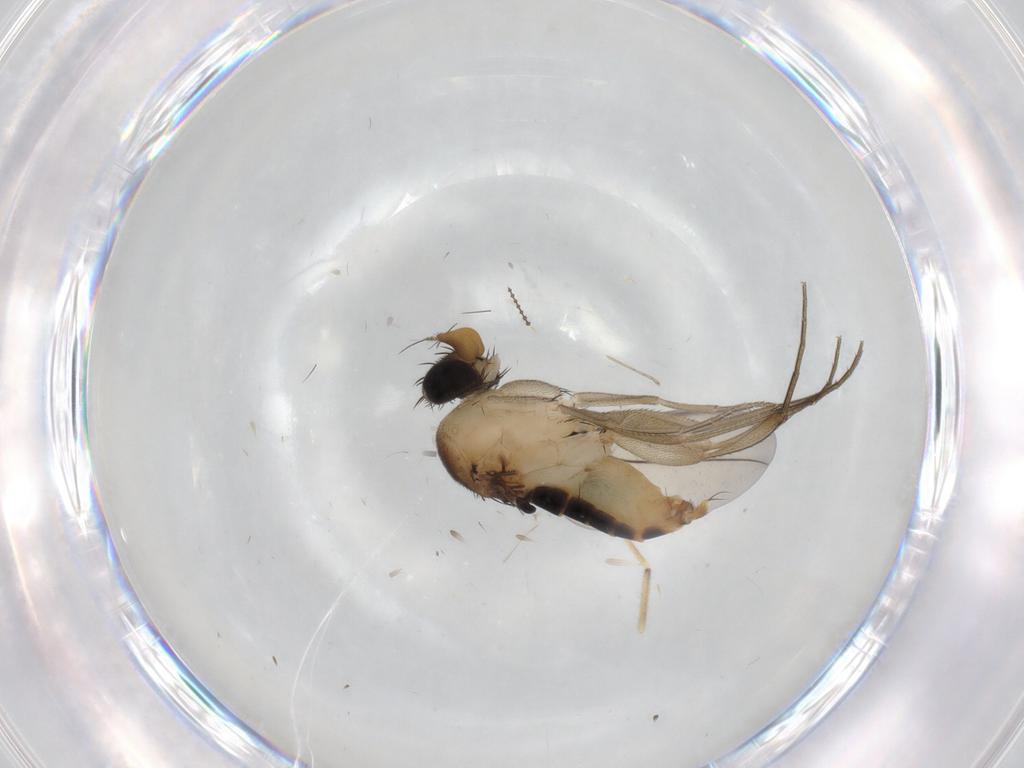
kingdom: Animalia
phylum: Arthropoda
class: Insecta
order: Diptera
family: Phoridae
